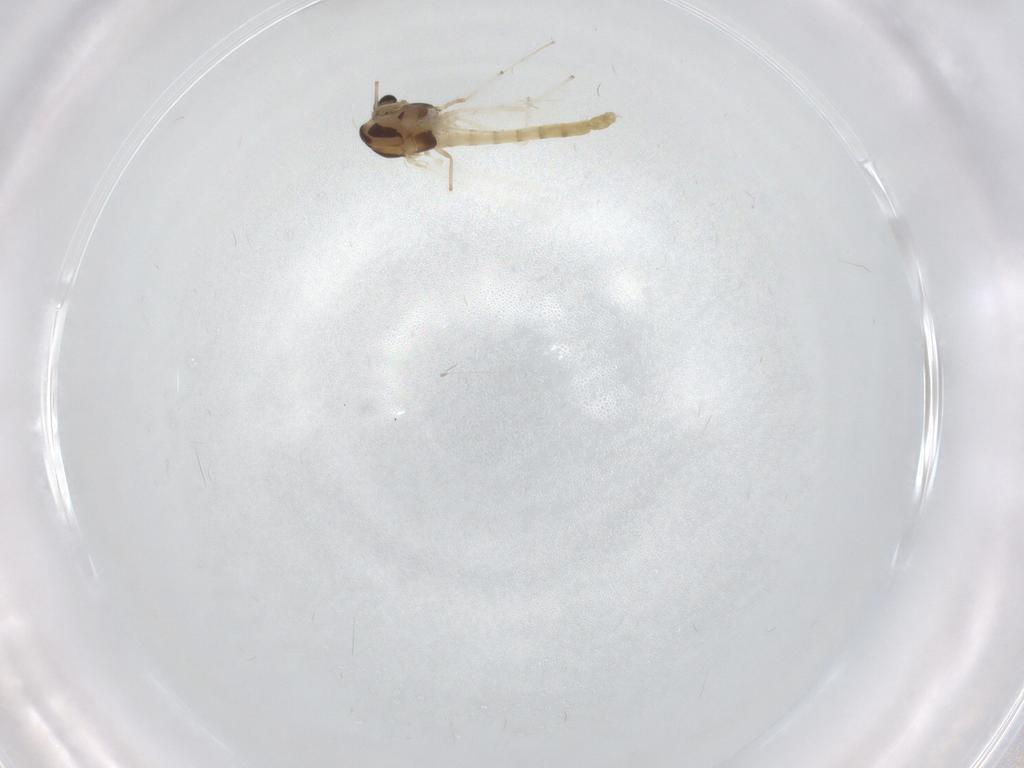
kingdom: Animalia
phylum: Arthropoda
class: Insecta
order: Diptera
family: Chironomidae
